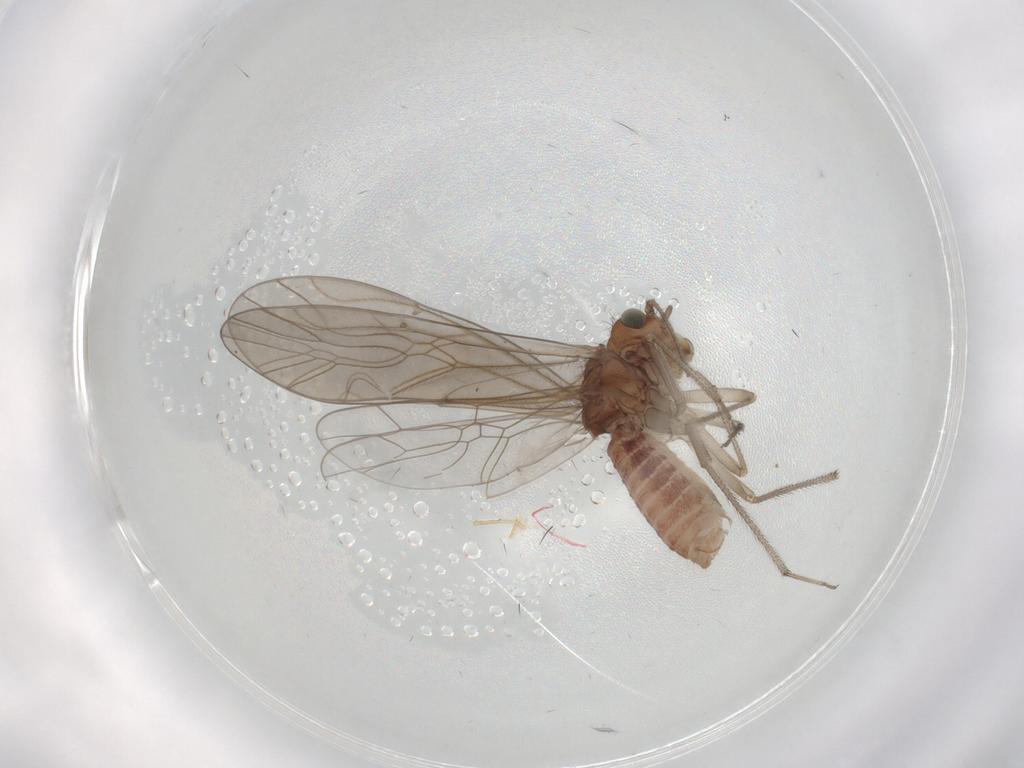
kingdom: Animalia
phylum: Arthropoda
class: Insecta
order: Psocodea
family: Caeciliusidae
